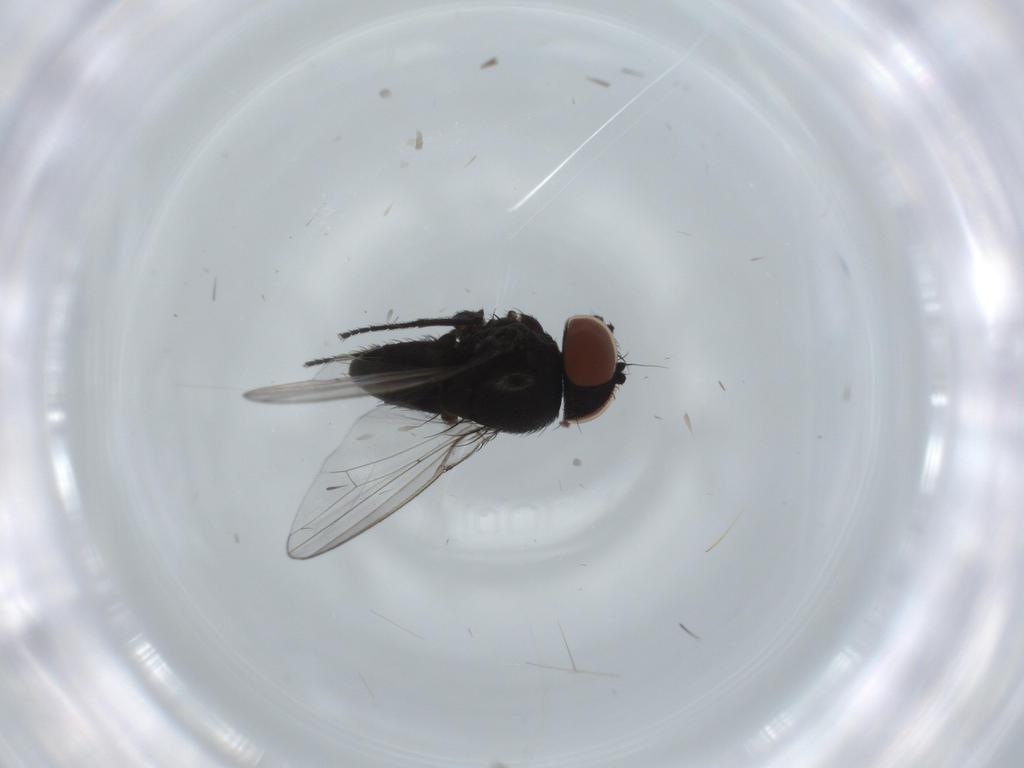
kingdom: Animalia
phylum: Arthropoda
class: Insecta
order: Diptera
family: Milichiidae
